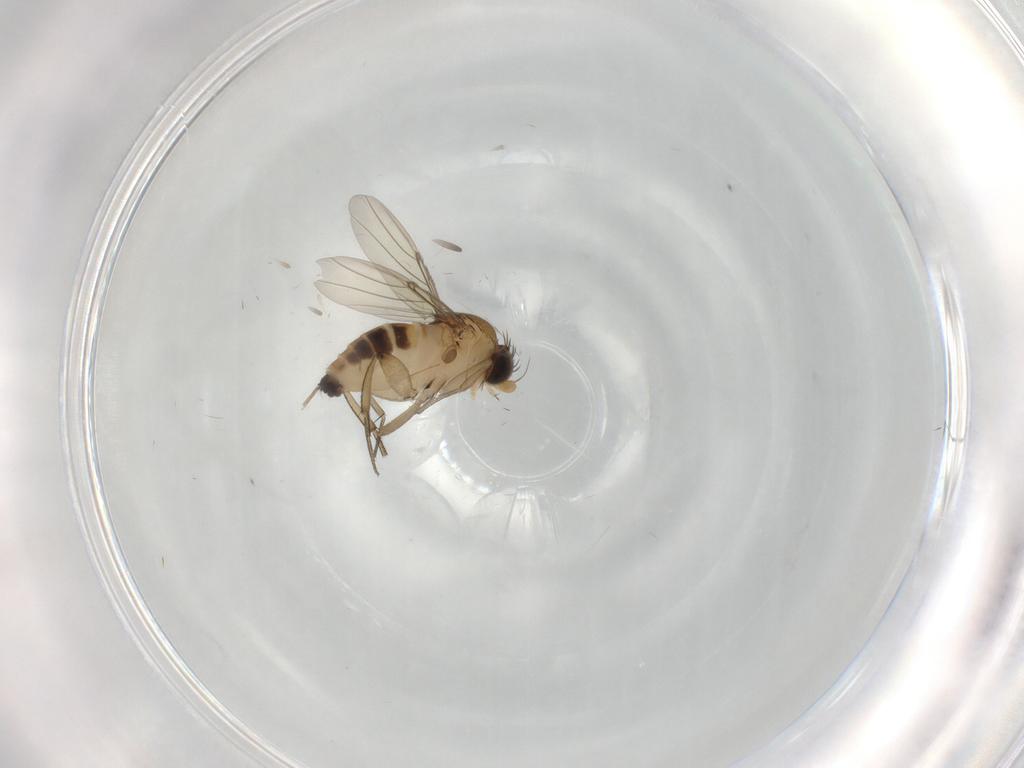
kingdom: Animalia
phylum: Arthropoda
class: Insecta
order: Diptera
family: Phoridae
